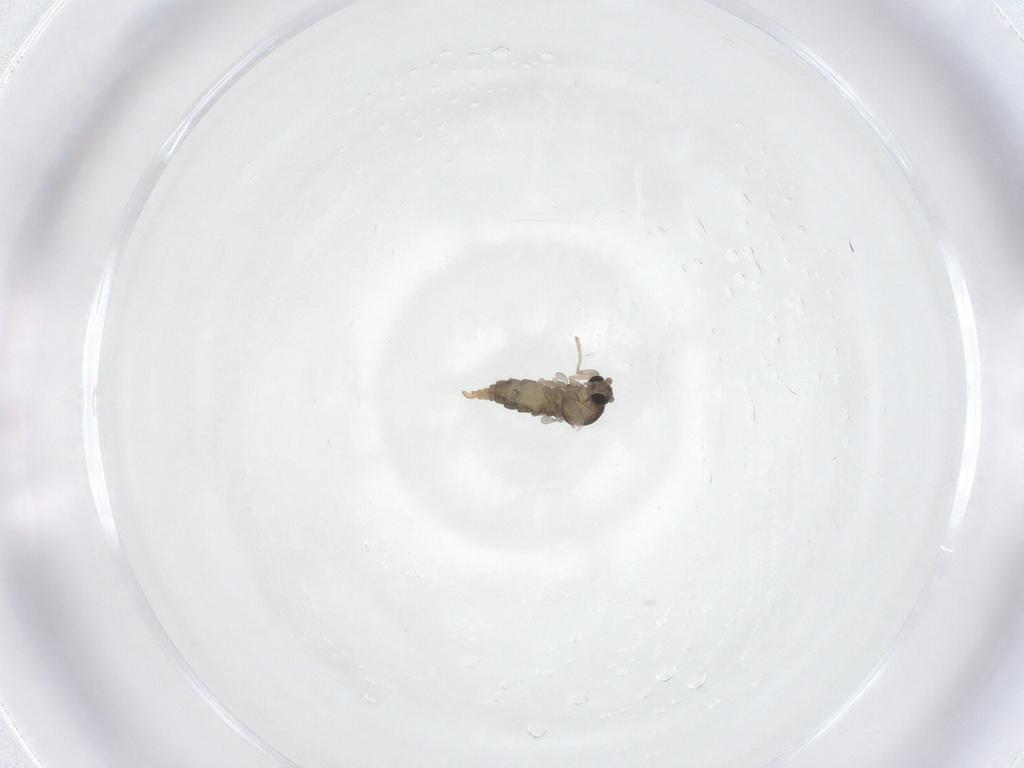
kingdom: Animalia
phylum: Arthropoda
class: Insecta
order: Diptera
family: Cecidomyiidae
